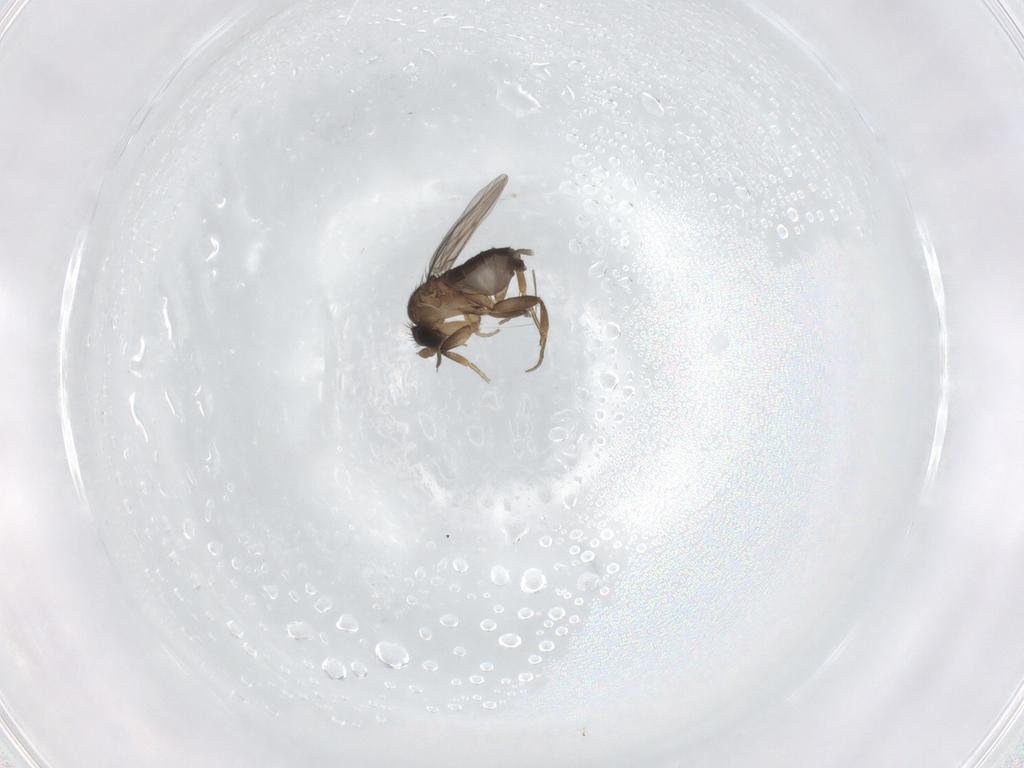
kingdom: Animalia
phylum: Arthropoda
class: Insecta
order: Diptera
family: Phoridae
